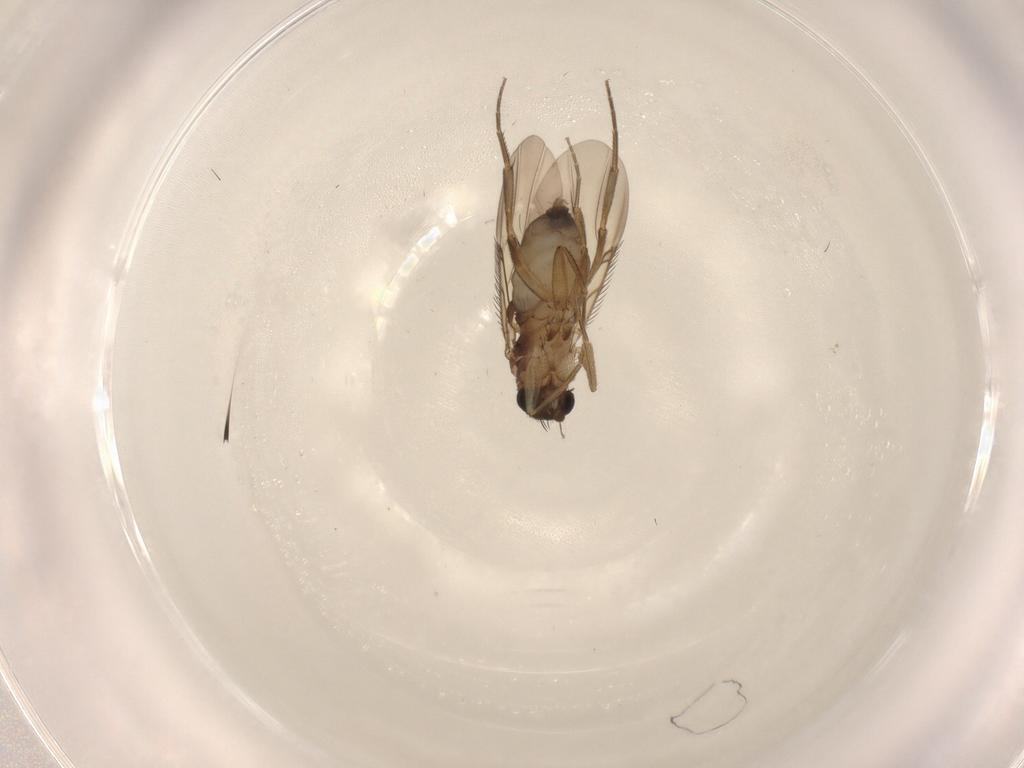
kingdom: Animalia
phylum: Arthropoda
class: Insecta
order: Diptera
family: Phoridae
